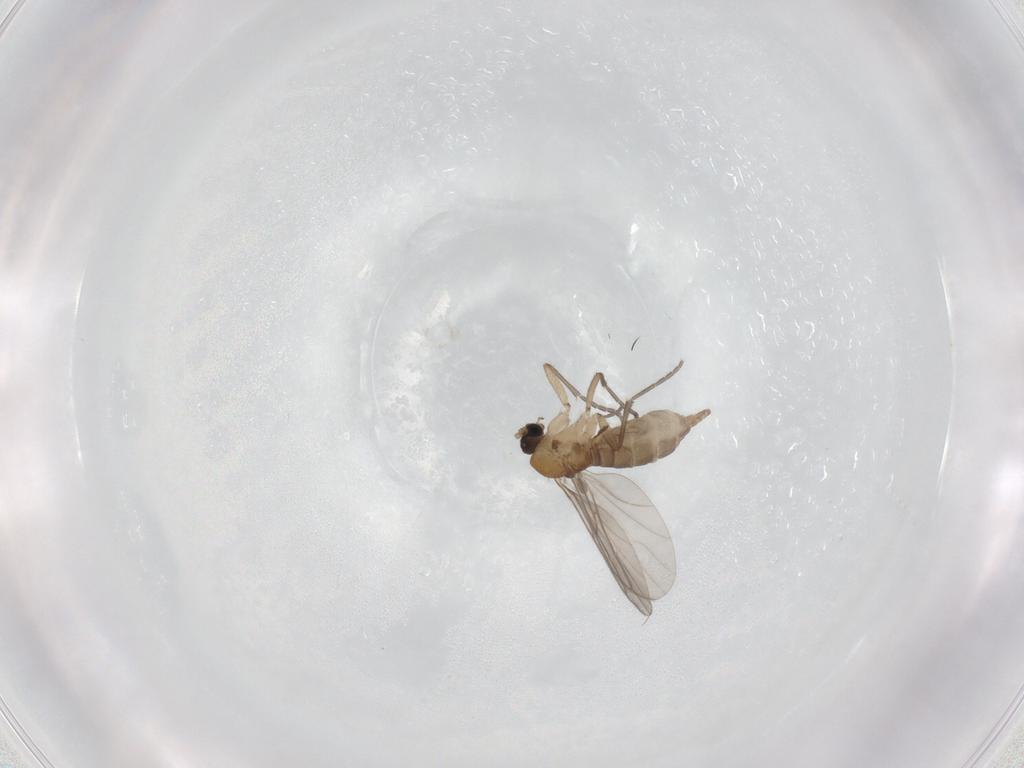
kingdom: Animalia
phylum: Arthropoda
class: Insecta
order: Diptera
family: Sciaridae
